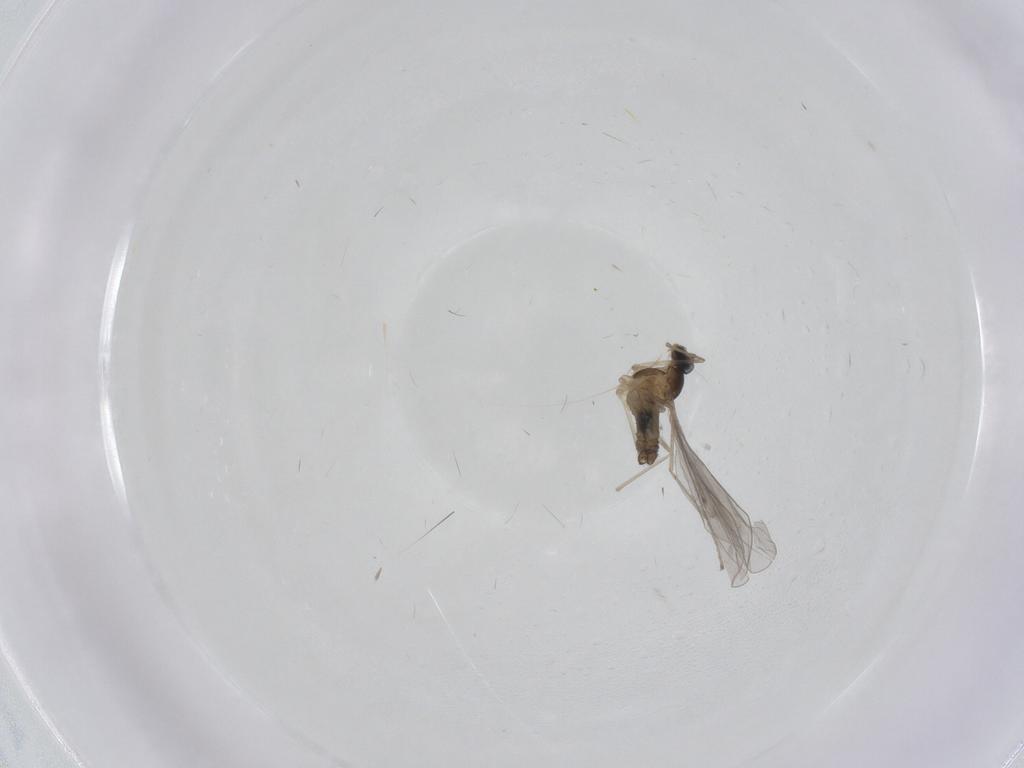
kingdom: Animalia
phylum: Arthropoda
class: Insecta
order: Diptera
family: Cecidomyiidae
